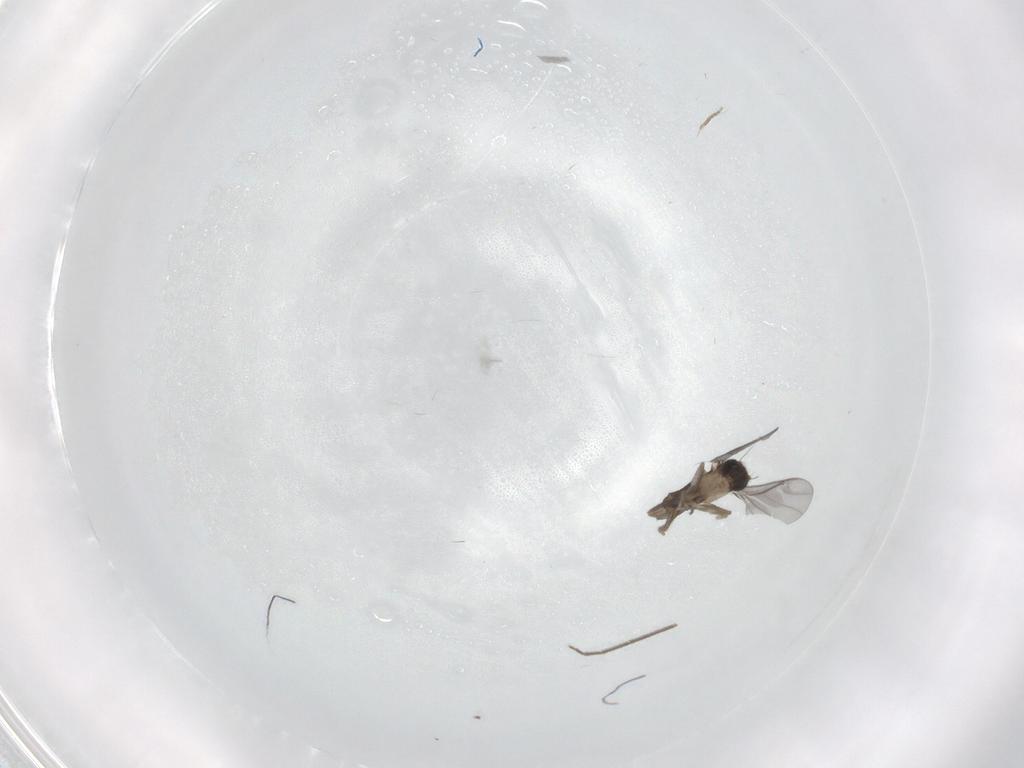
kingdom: Animalia
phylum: Arthropoda
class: Insecta
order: Diptera
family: Chironomidae
